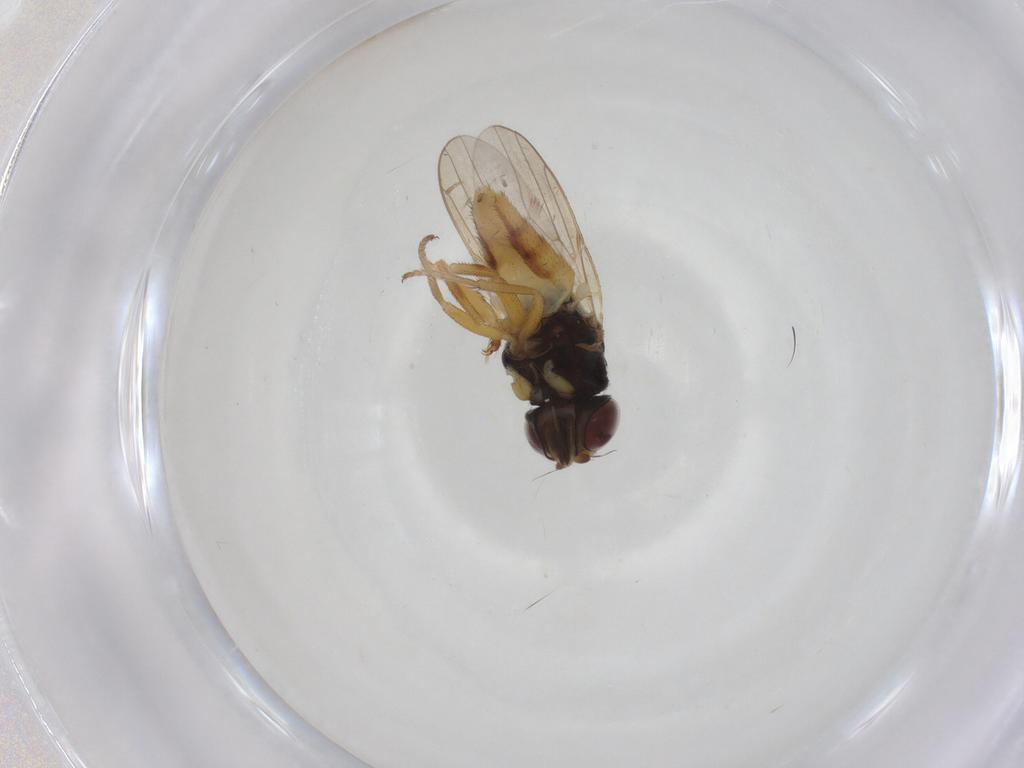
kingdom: Animalia
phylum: Arthropoda
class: Insecta
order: Diptera
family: Chloropidae
